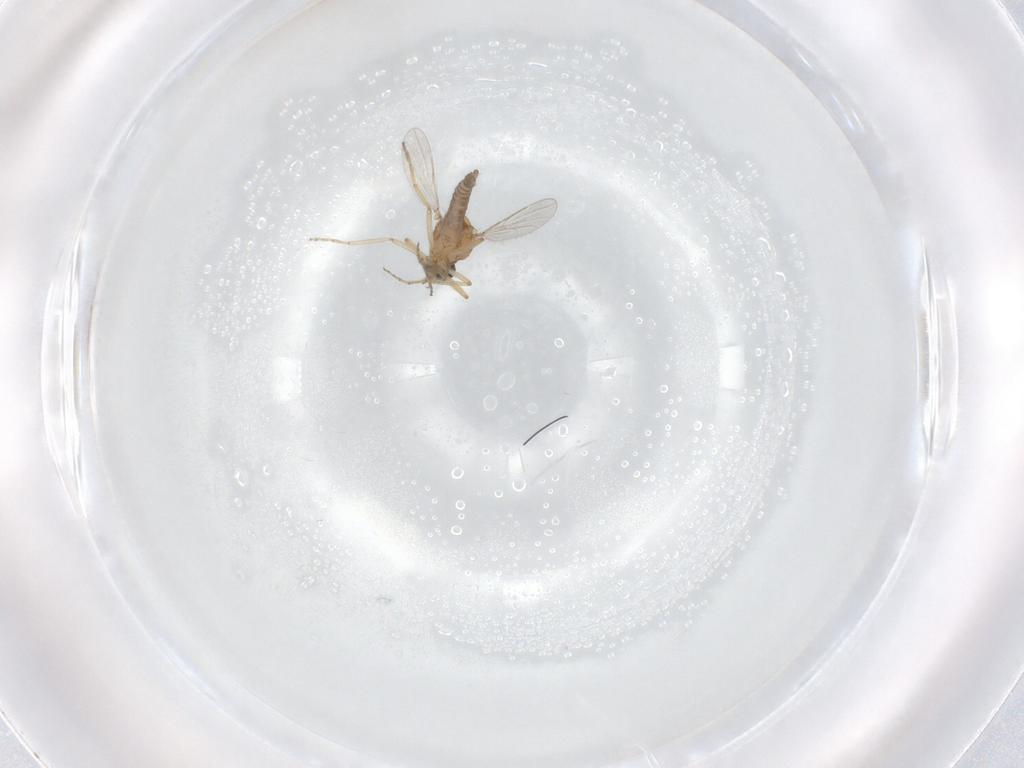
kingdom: Animalia
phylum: Arthropoda
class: Insecta
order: Diptera
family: Ceratopogonidae
